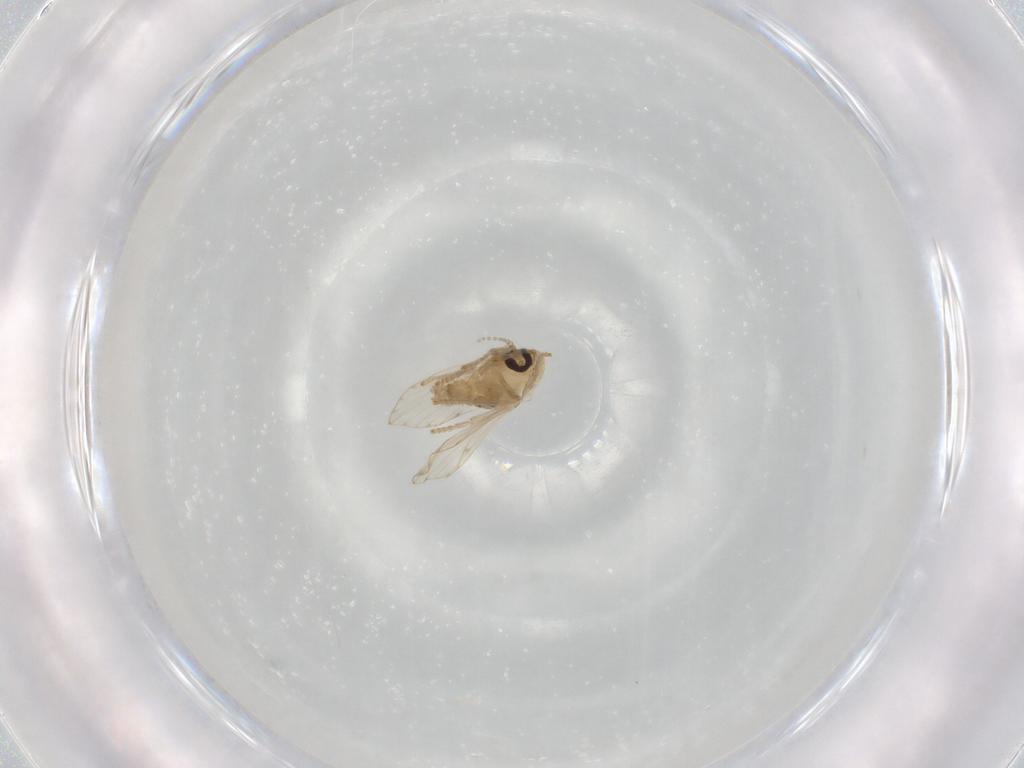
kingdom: Animalia
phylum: Arthropoda
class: Insecta
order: Diptera
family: Psychodidae
